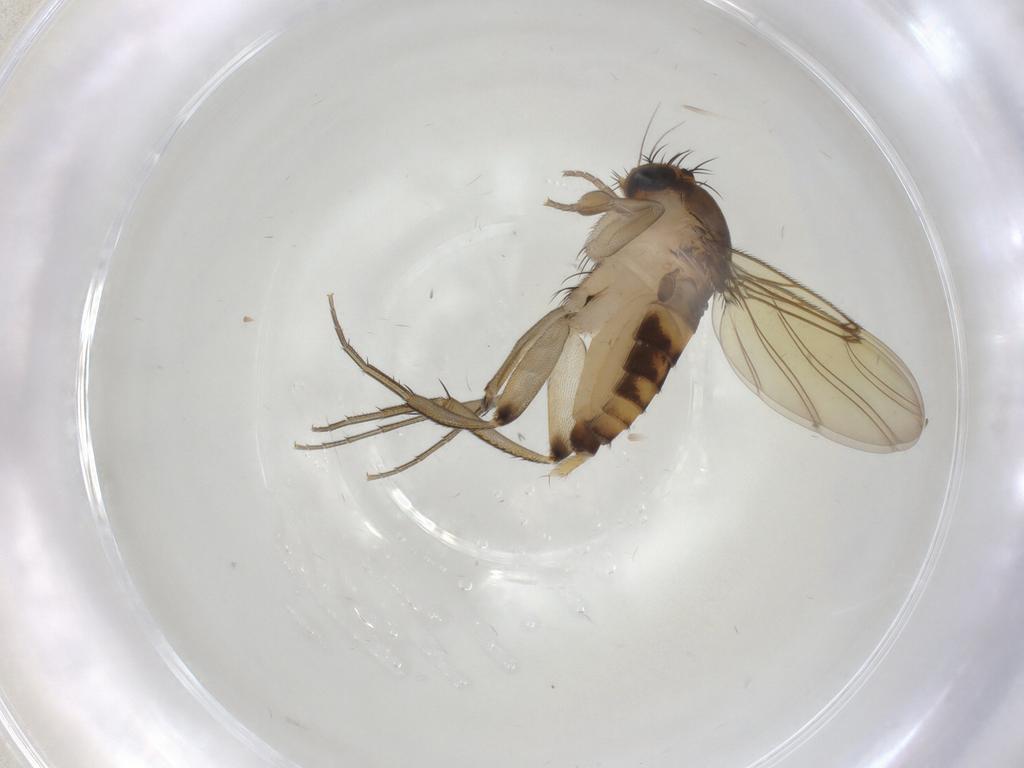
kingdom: Animalia
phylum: Arthropoda
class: Insecta
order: Diptera
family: Phoridae
